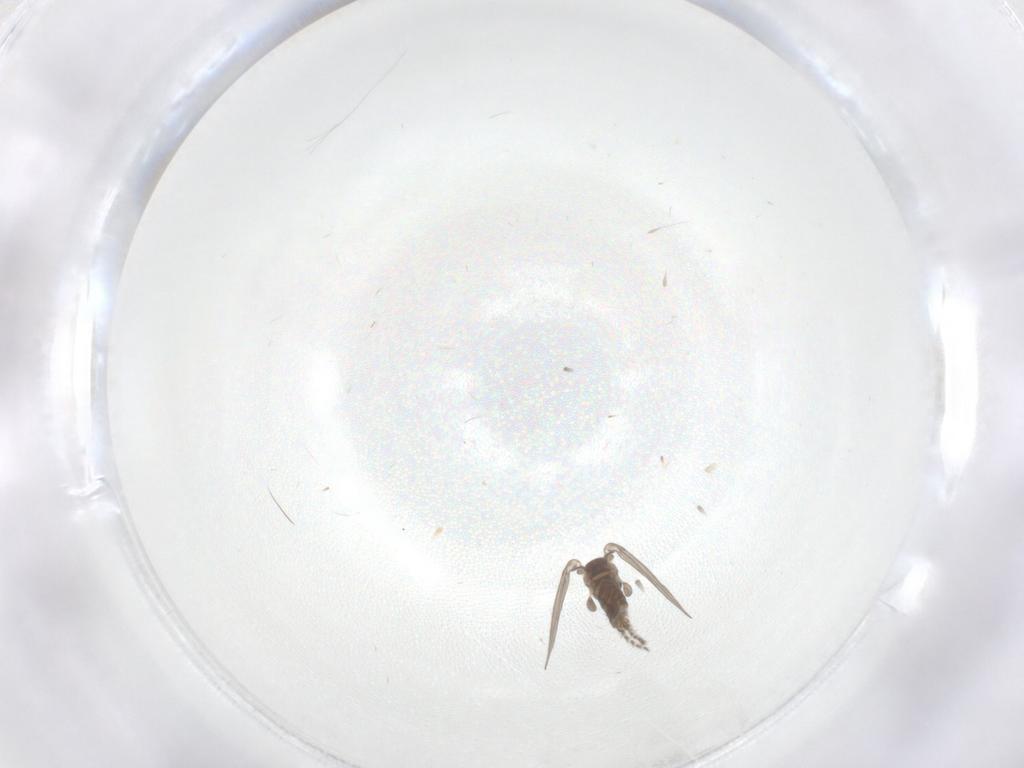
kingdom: Animalia
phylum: Arthropoda
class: Insecta
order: Diptera
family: Psychodidae
